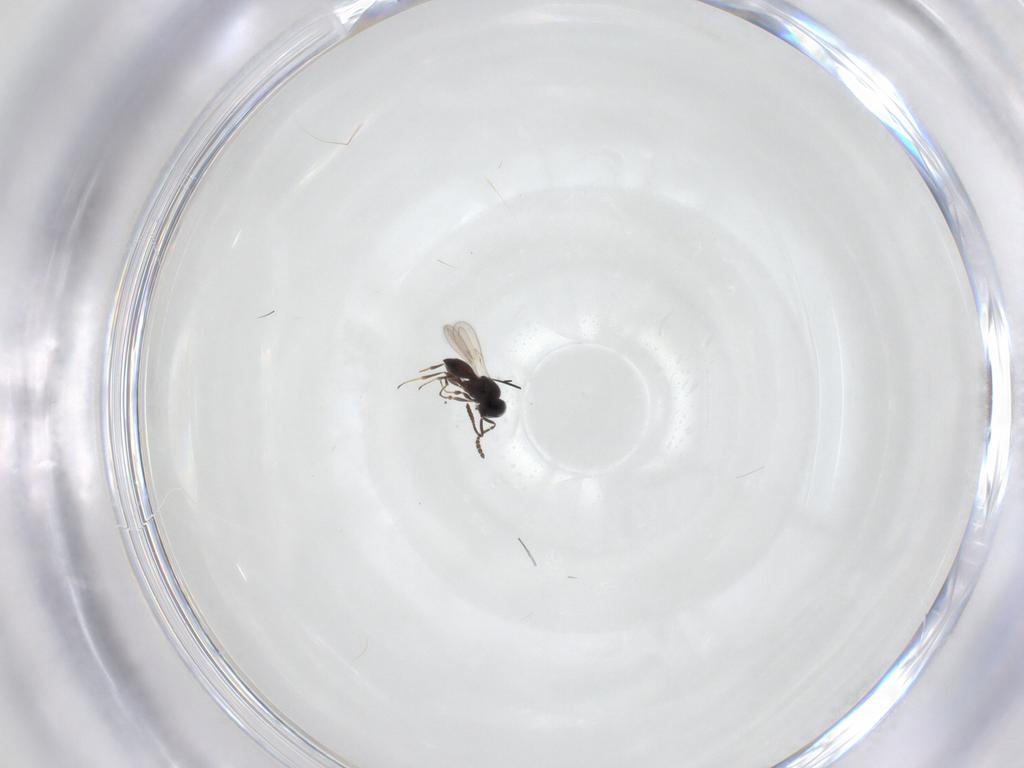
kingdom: Animalia
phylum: Arthropoda
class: Insecta
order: Hymenoptera
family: Scelionidae
